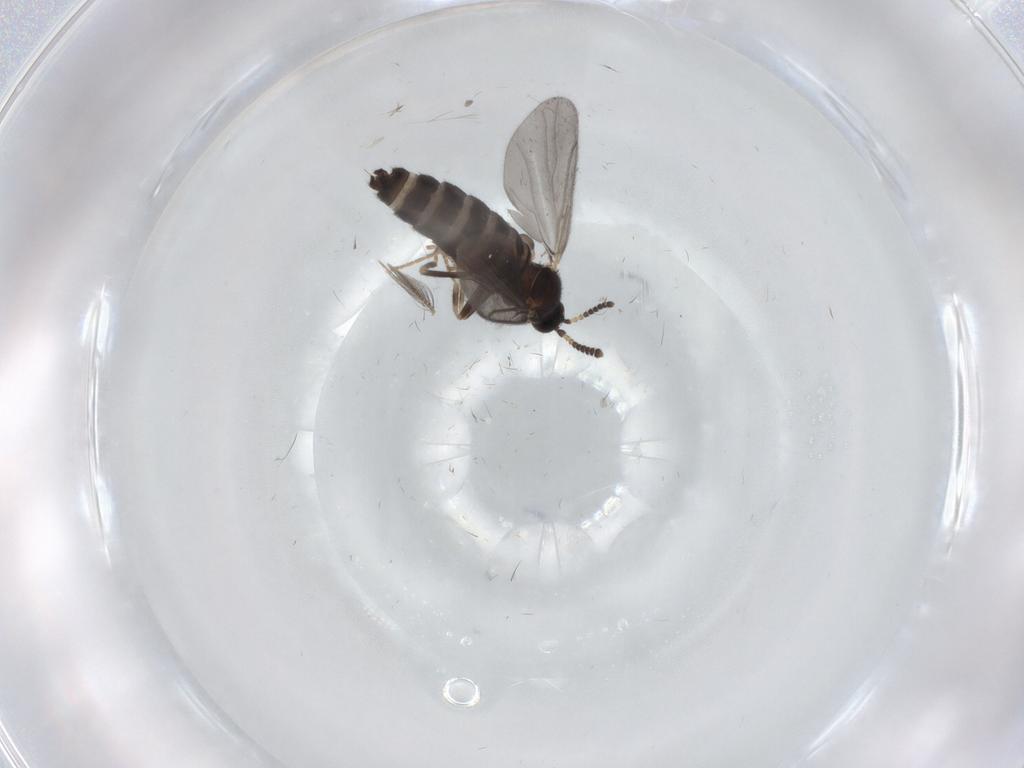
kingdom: Animalia
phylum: Arthropoda
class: Insecta
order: Diptera
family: Scatopsidae
